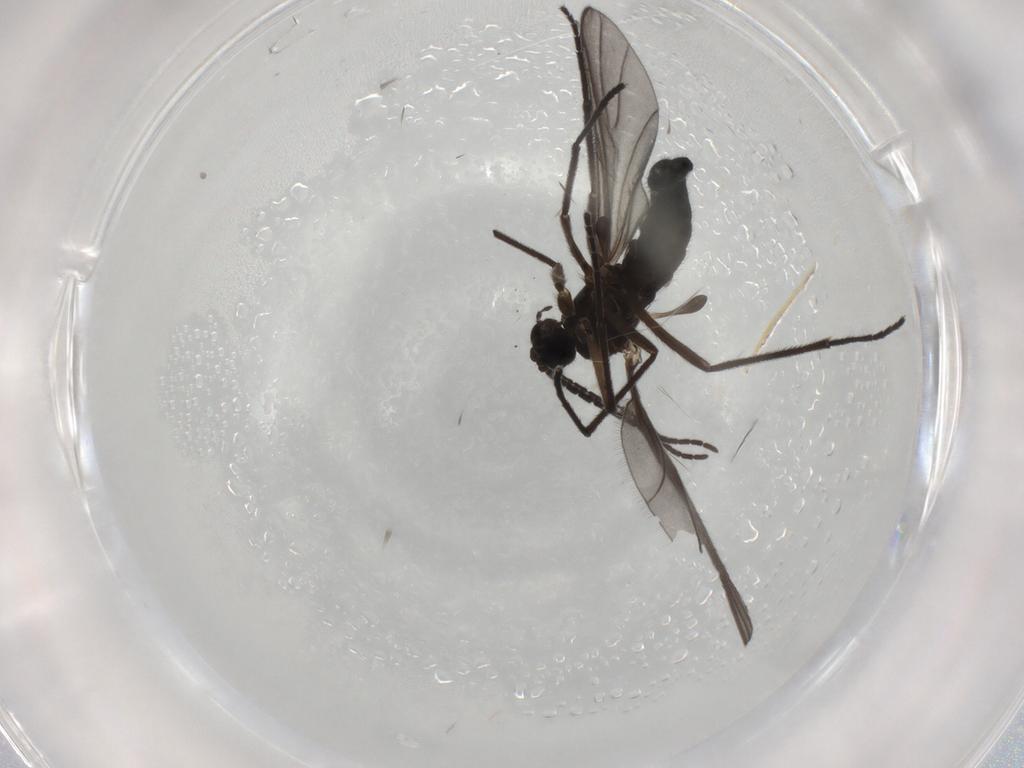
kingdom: Animalia
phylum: Arthropoda
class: Insecta
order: Diptera
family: Sciaridae
